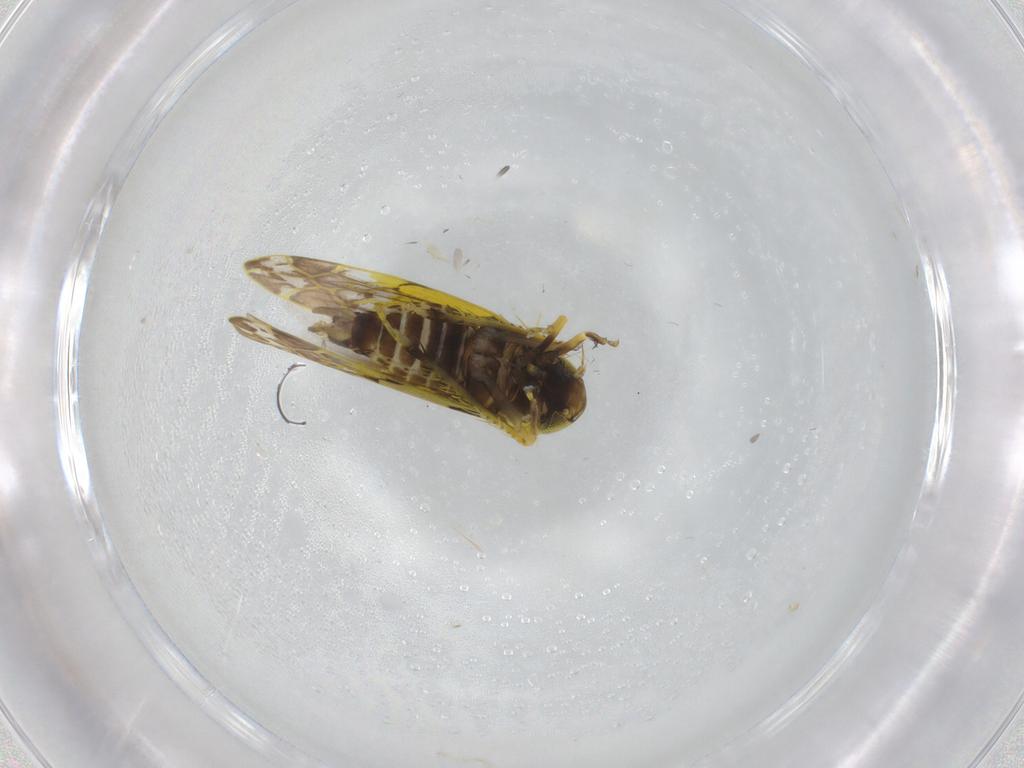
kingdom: Animalia
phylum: Arthropoda
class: Insecta
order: Hemiptera
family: Cicadellidae
